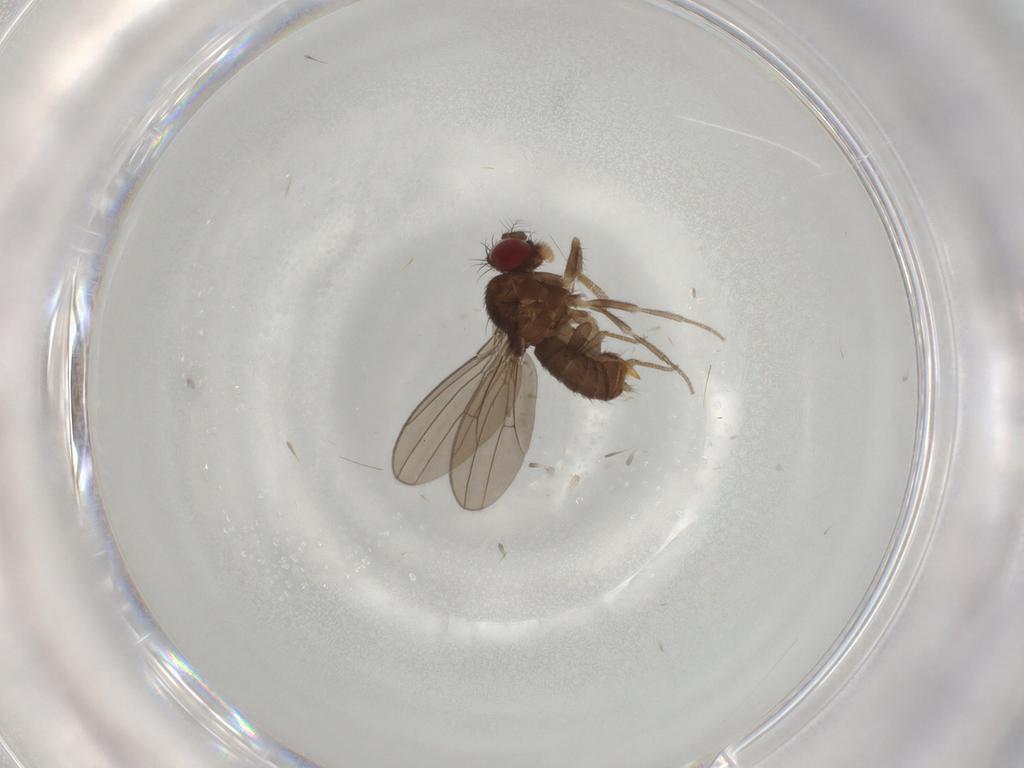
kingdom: Animalia
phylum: Arthropoda
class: Insecta
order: Diptera
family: Drosophilidae
